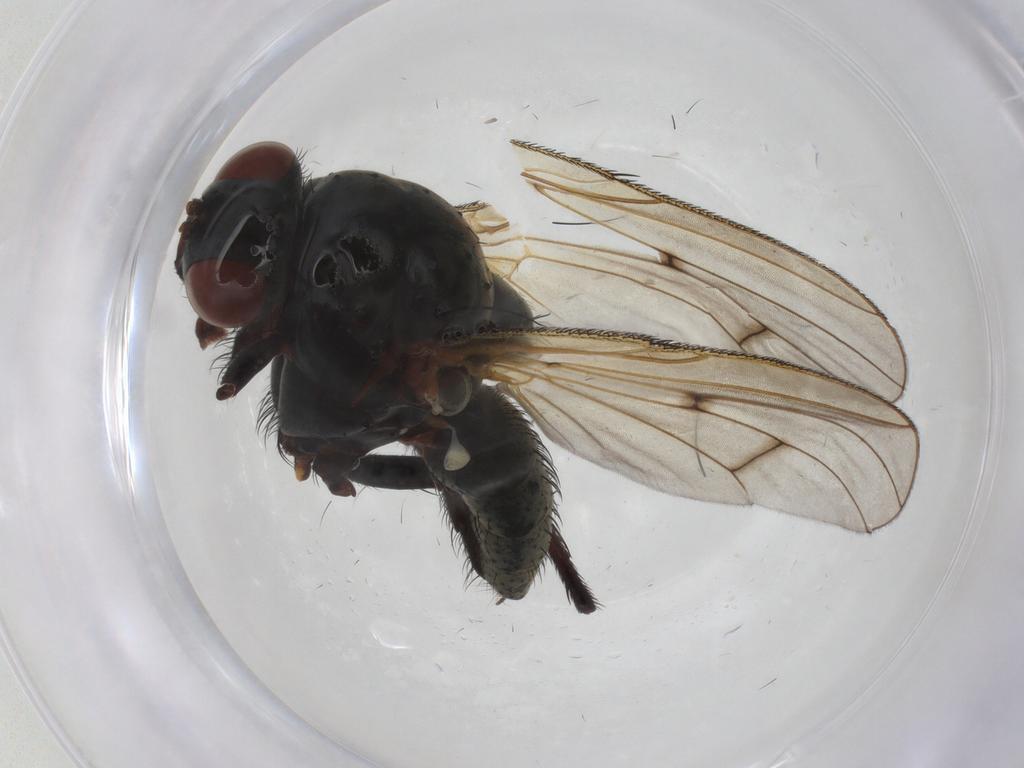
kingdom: Animalia
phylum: Arthropoda
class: Insecta
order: Diptera
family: Anthomyiidae
